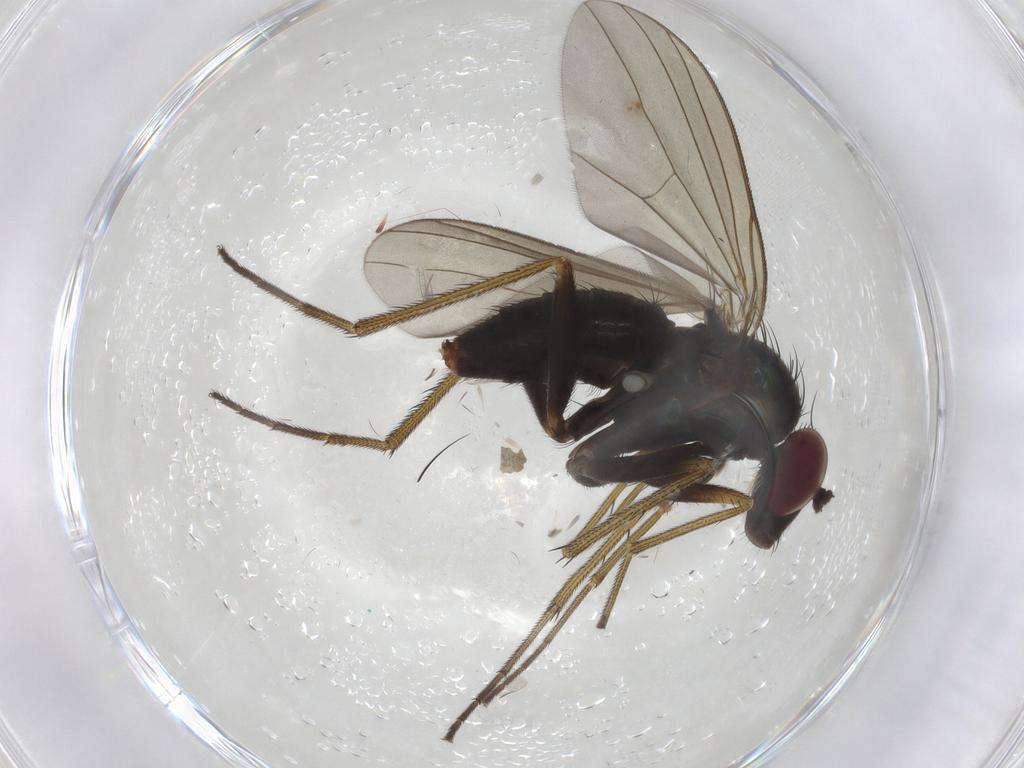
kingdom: Animalia
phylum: Arthropoda
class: Insecta
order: Diptera
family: Dolichopodidae
